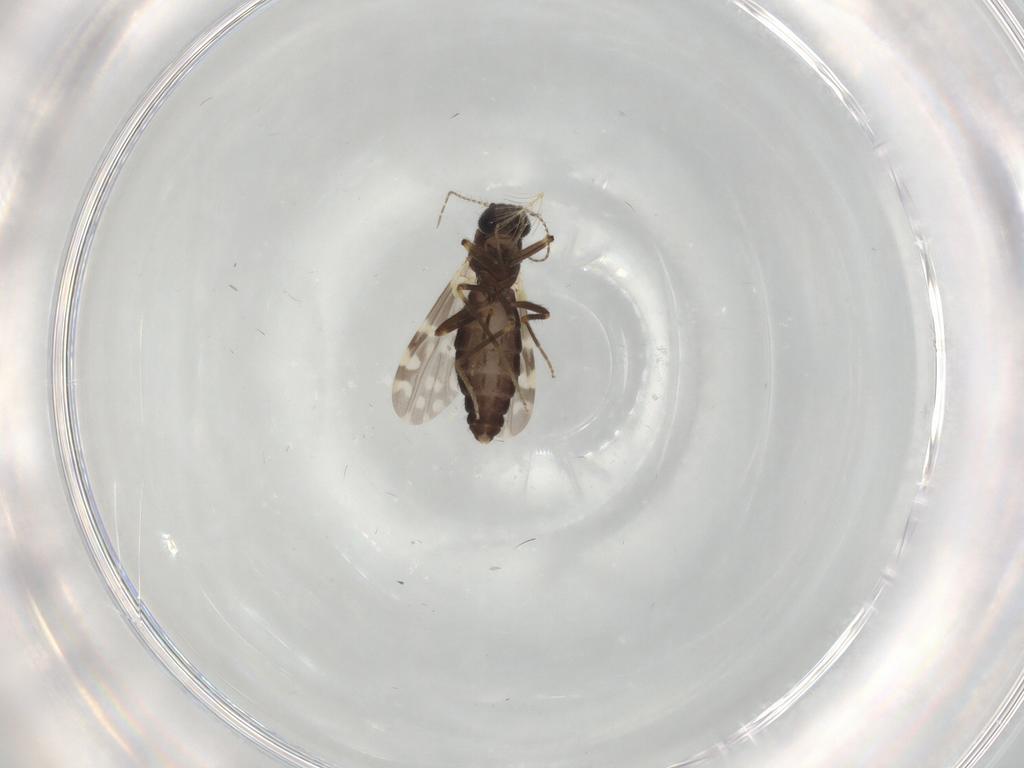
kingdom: Animalia
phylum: Arthropoda
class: Insecta
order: Diptera
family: Ceratopogonidae
